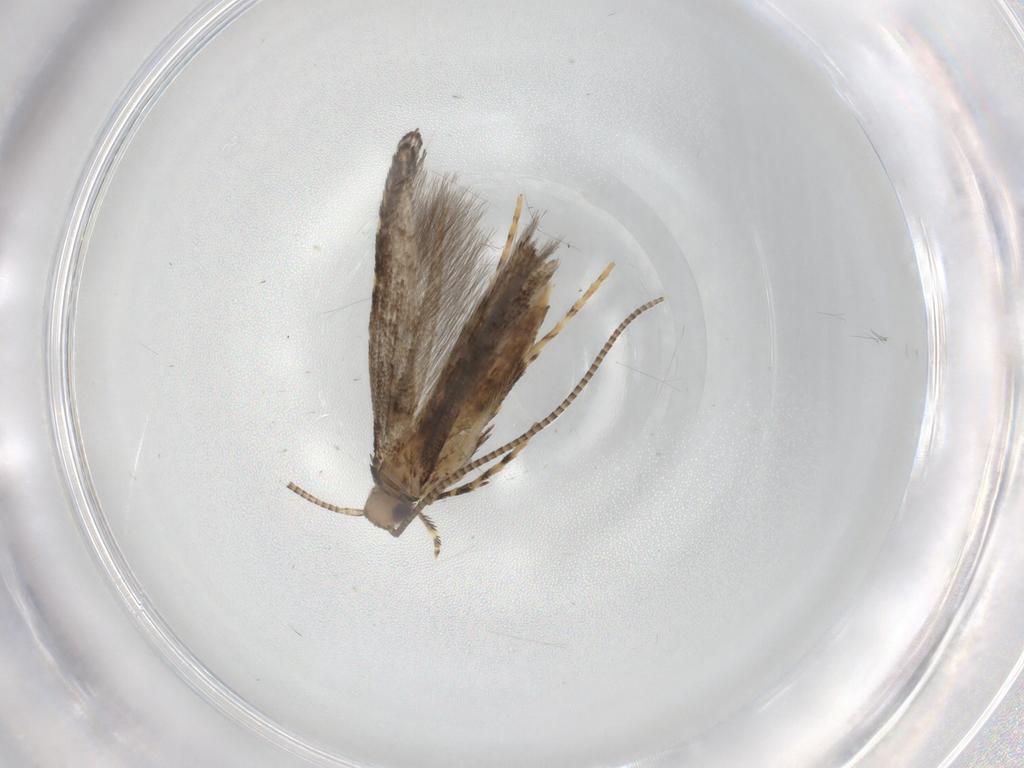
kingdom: Animalia
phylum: Arthropoda
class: Insecta
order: Lepidoptera
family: Gracillariidae
